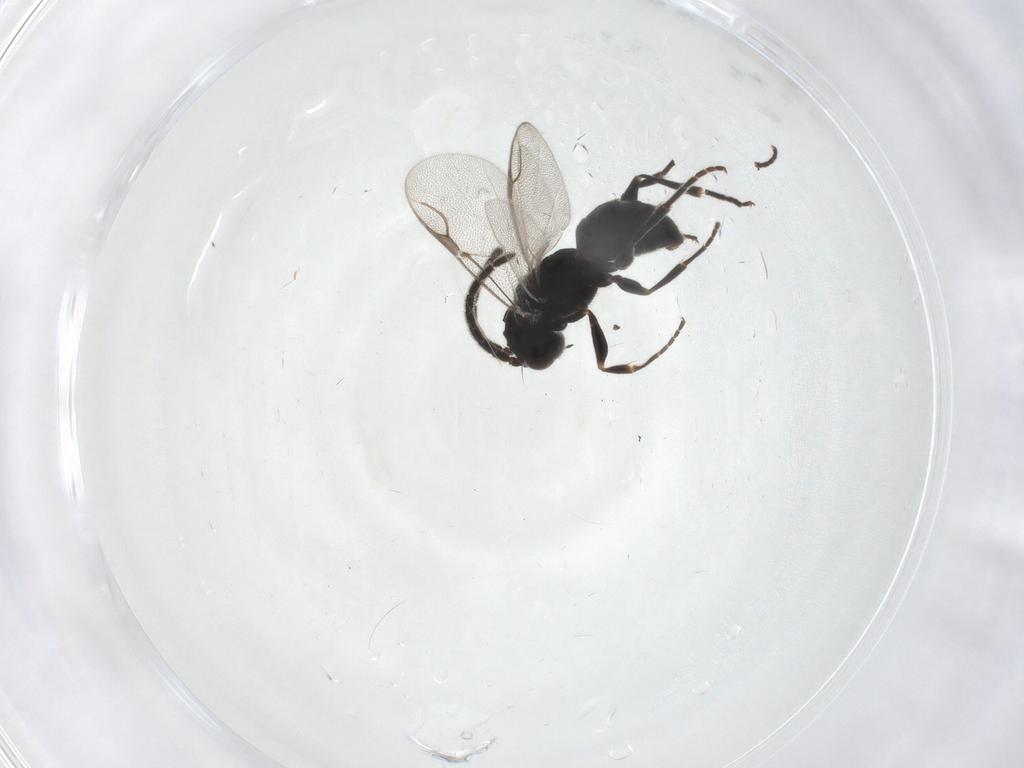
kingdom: Animalia
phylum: Arthropoda
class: Insecta
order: Hymenoptera
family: Dryinidae
